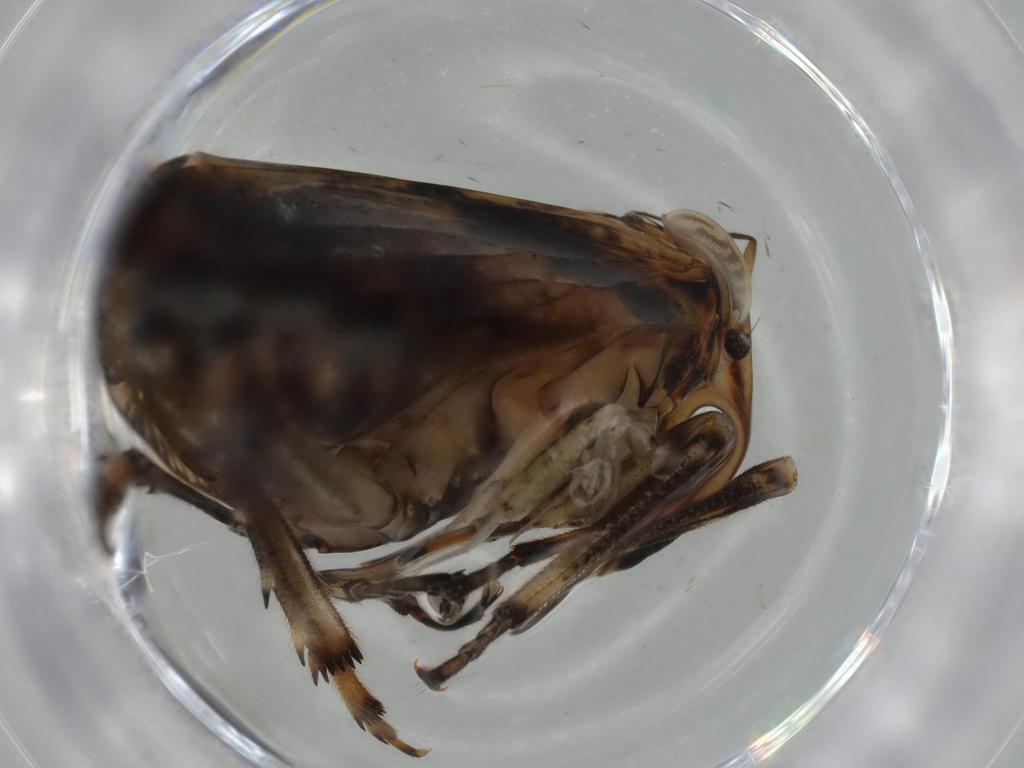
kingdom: Animalia
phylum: Arthropoda
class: Insecta
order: Hemiptera
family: Issidae
